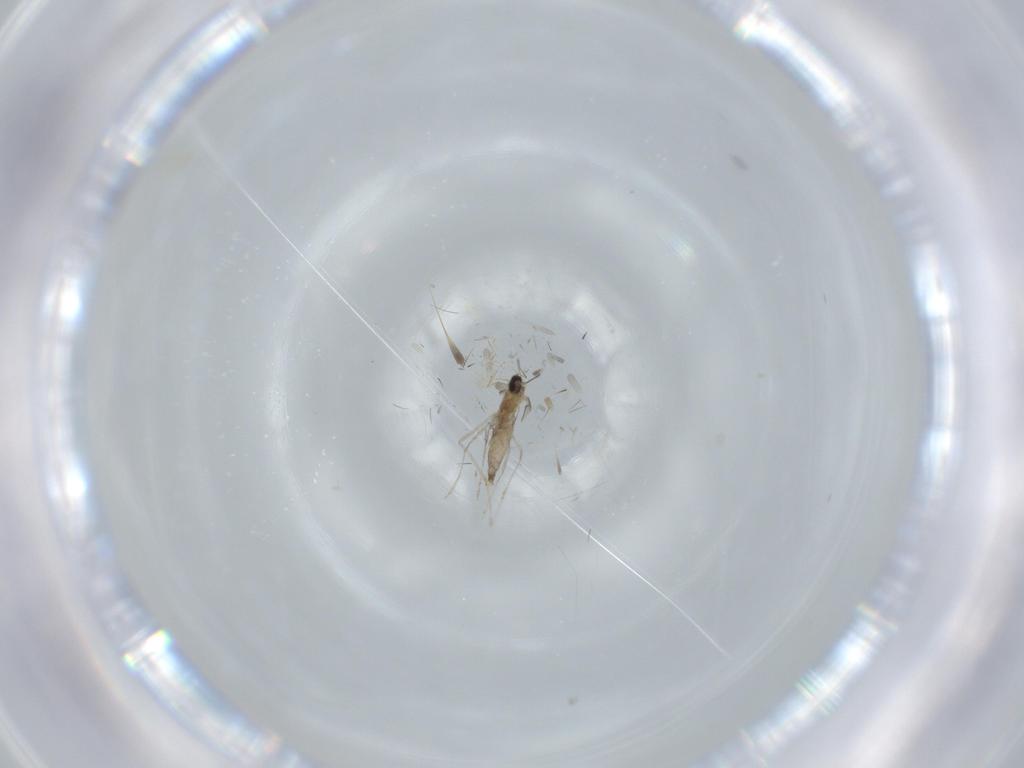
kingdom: Animalia
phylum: Arthropoda
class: Insecta
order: Diptera
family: Cecidomyiidae
